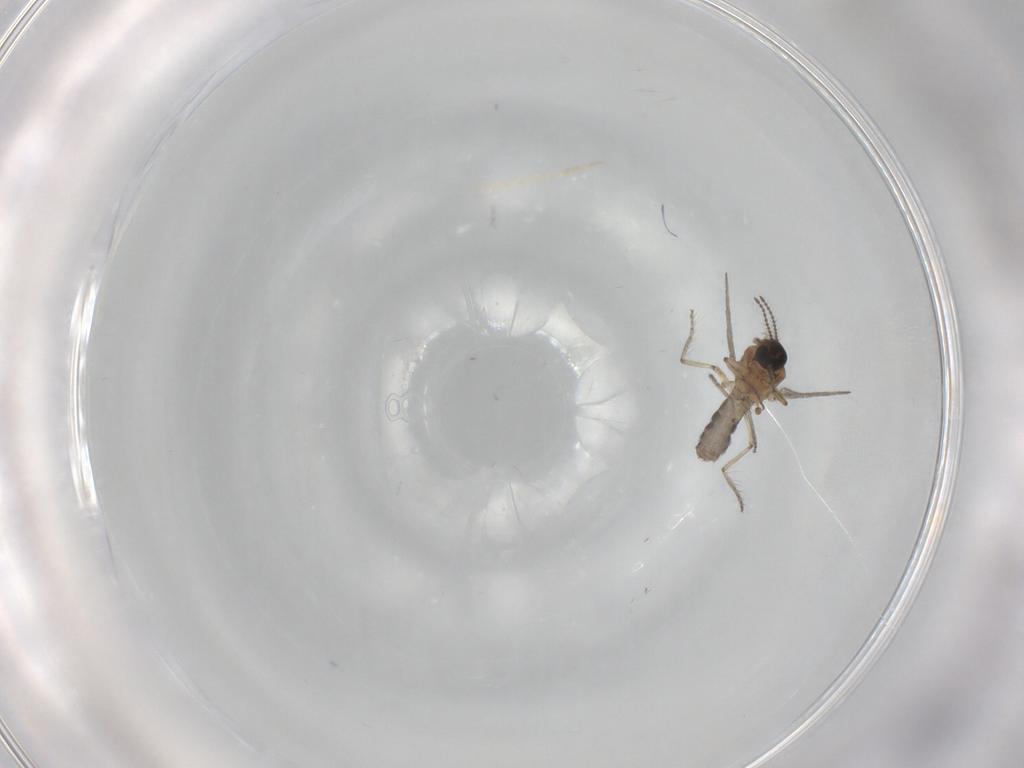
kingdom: Animalia
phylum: Arthropoda
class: Insecta
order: Diptera
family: Ceratopogonidae
